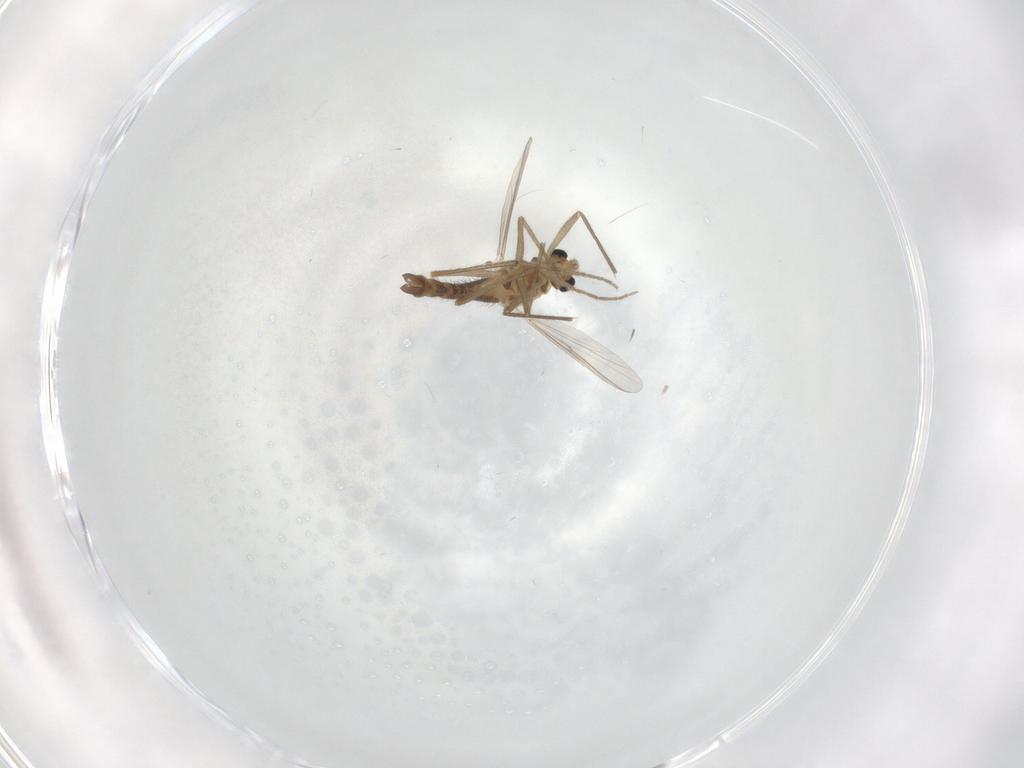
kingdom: Animalia
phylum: Arthropoda
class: Insecta
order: Diptera
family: Chironomidae
